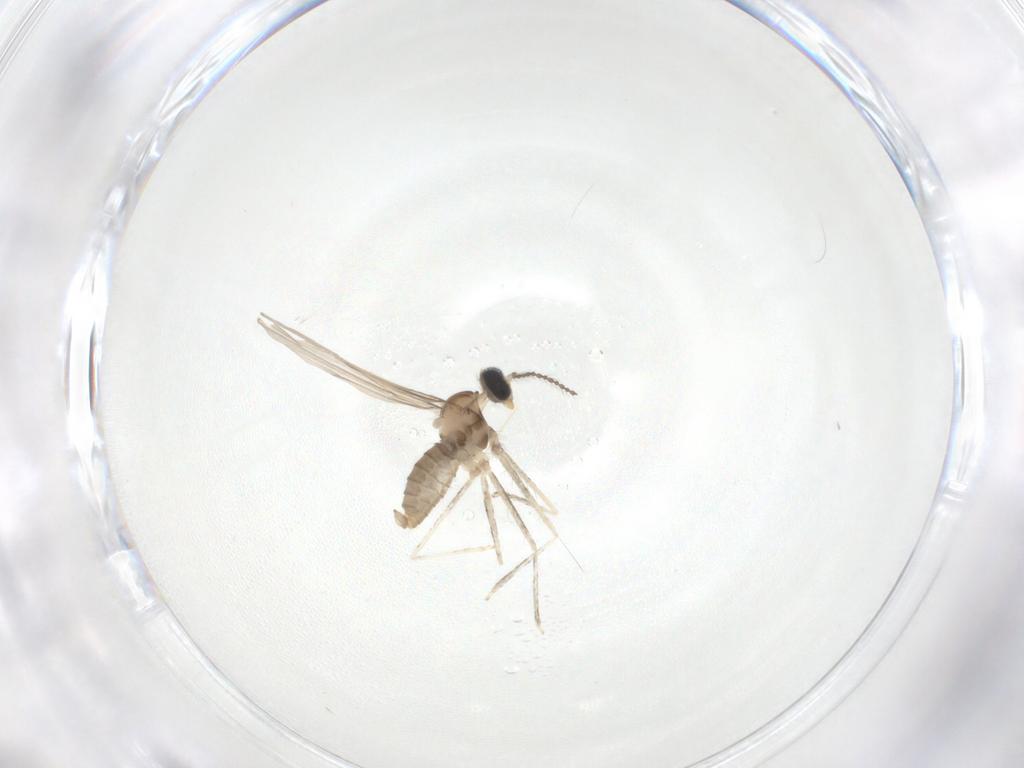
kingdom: Animalia
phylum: Arthropoda
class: Insecta
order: Diptera
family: Cecidomyiidae
